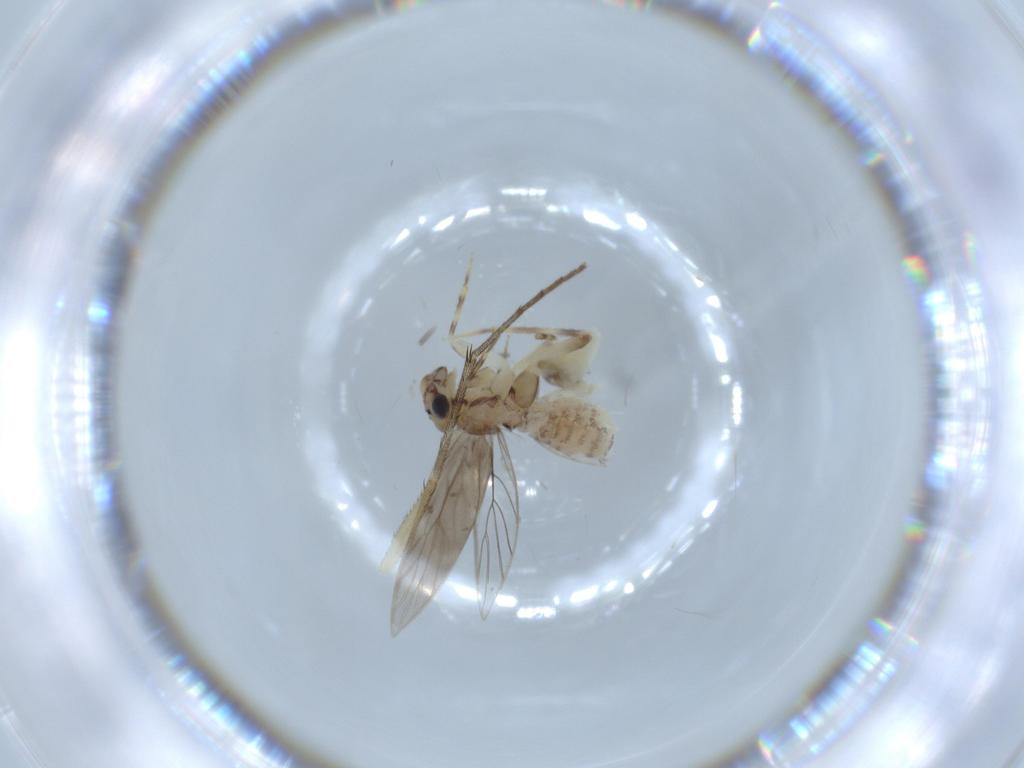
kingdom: Animalia
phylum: Arthropoda
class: Insecta
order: Psocodea
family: Lepidopsocidae
